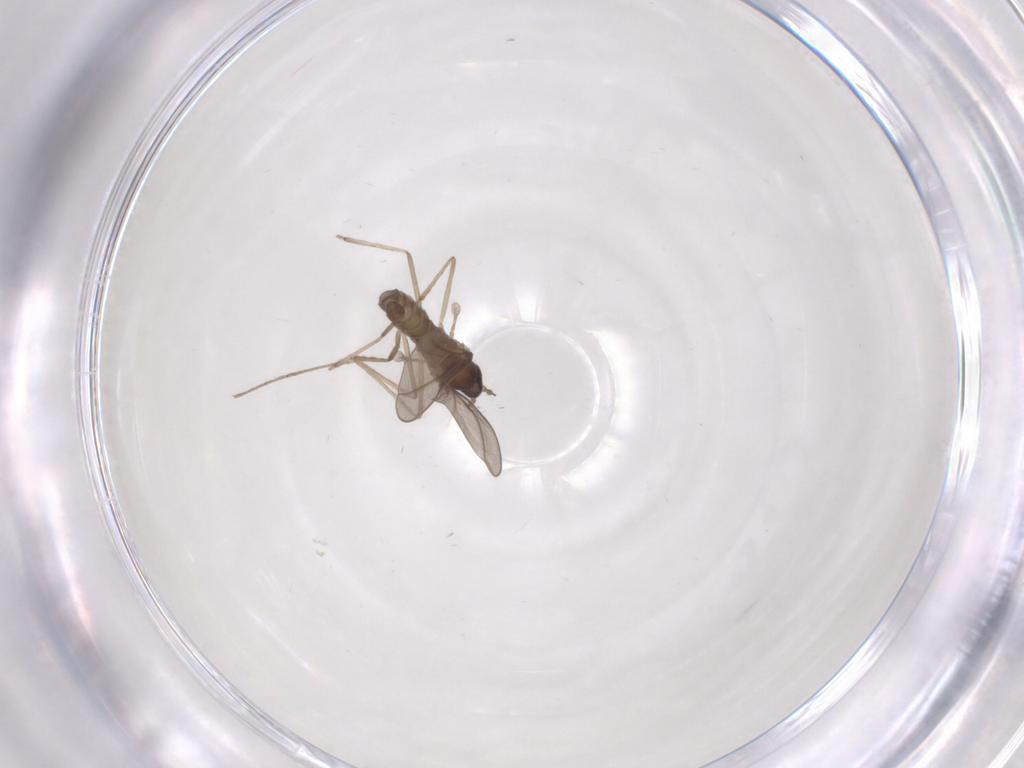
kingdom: Animalia
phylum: Arthropoda
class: Insecta
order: Diptera
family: Cecidomyiidae
